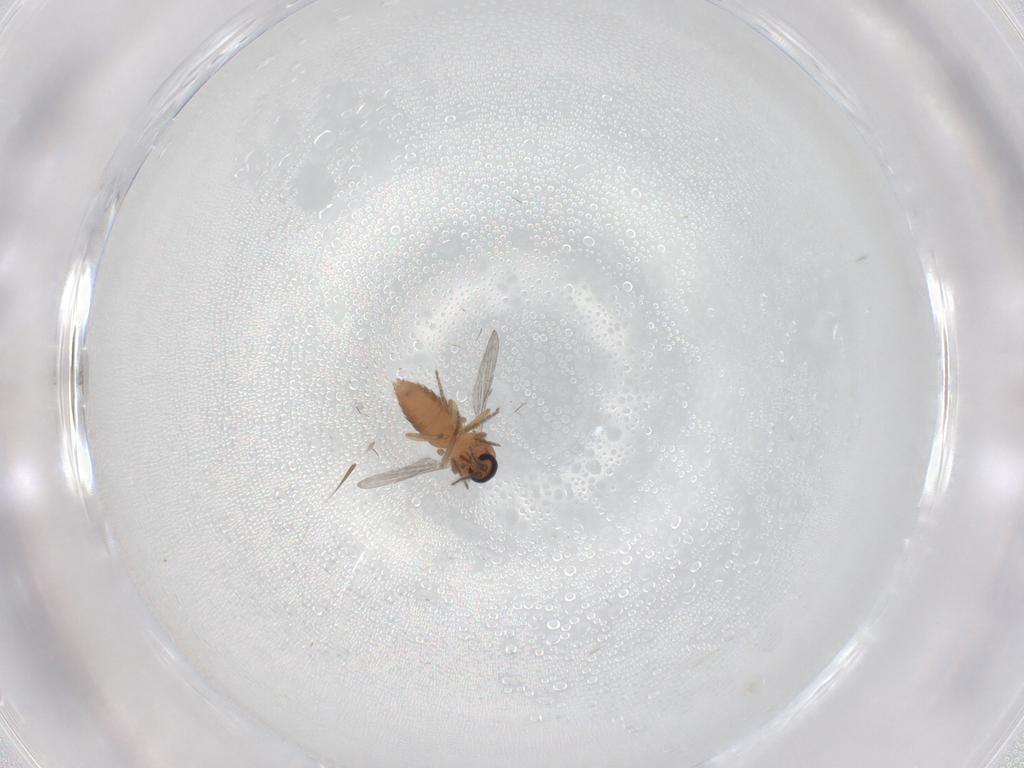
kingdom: Animalia
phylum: Arthropoda
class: Insecta
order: Diptera
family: Ceratopogonidae
